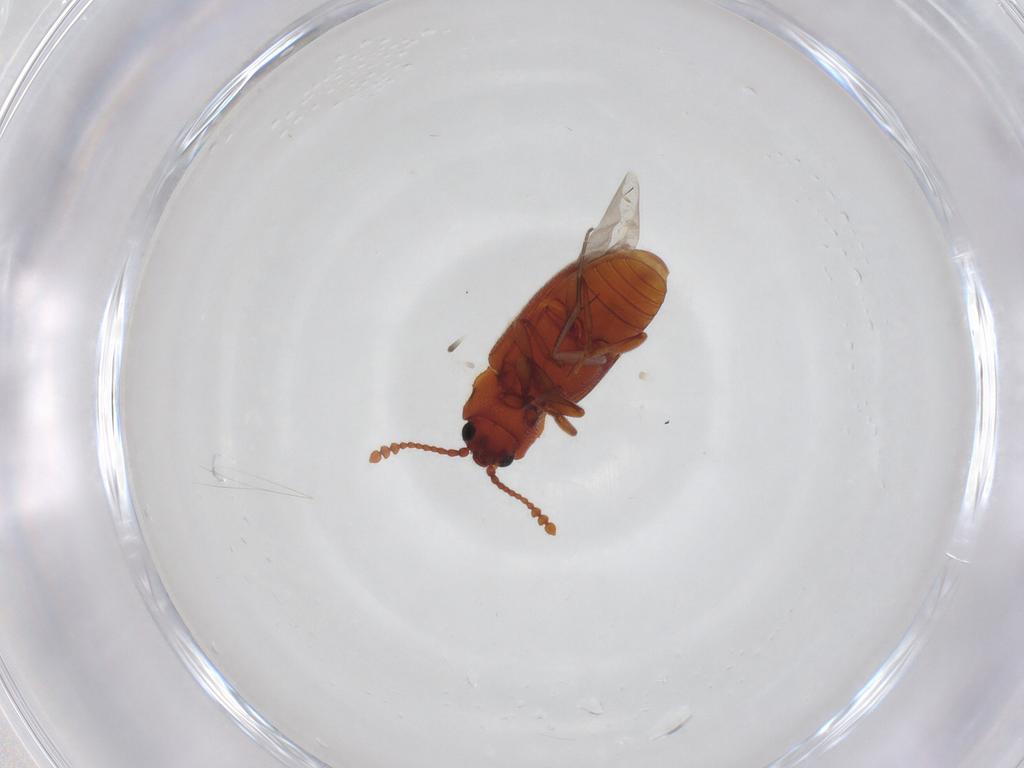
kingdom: Animalia
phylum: Arthropoda
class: Insecta
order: Coleoptera
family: Cryptophagidae
